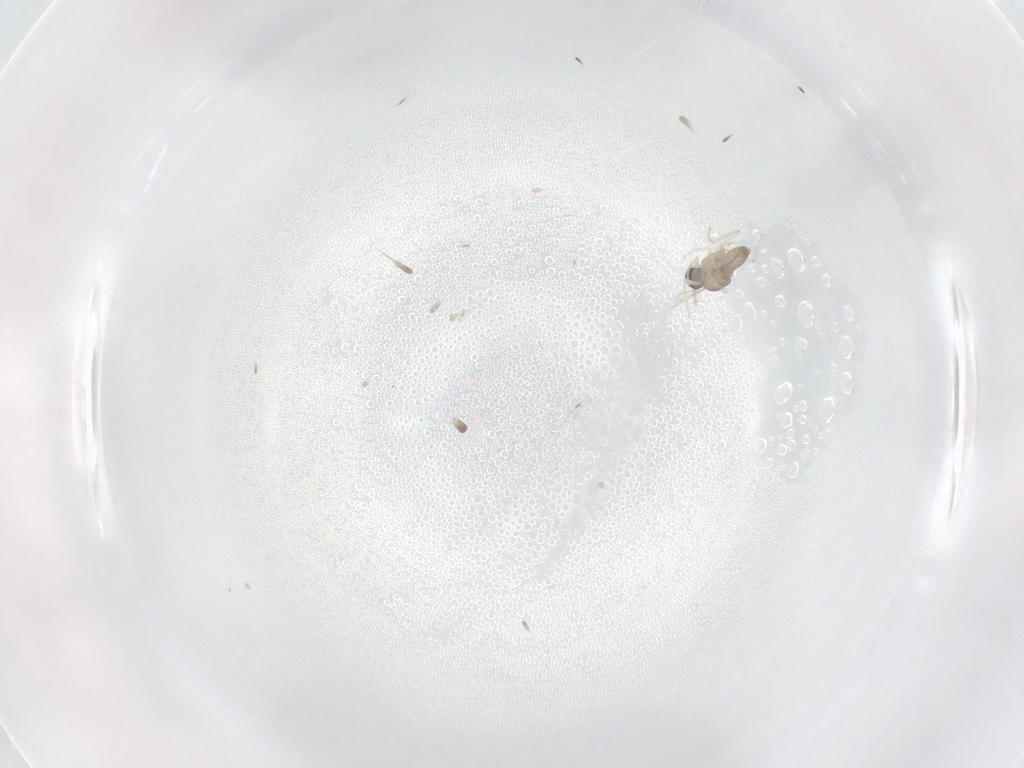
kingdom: Animalia
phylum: Arthropoda
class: Insecta
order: Diptera
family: Cecidomyiidae
